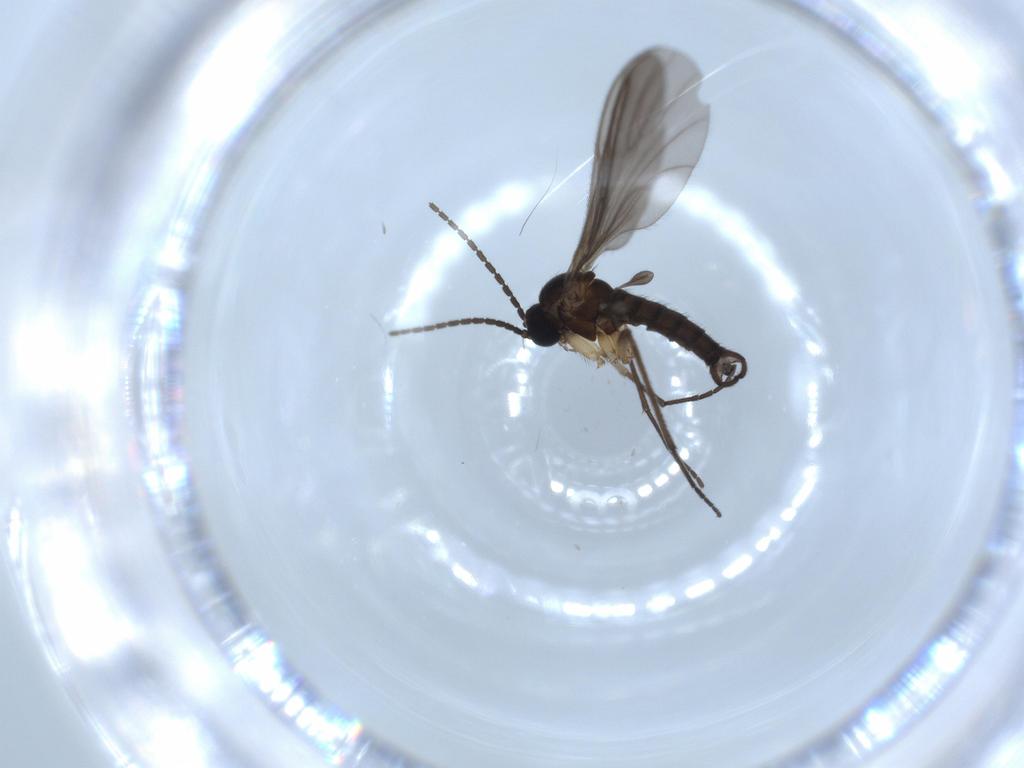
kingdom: Animalia
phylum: Arthropoda
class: Insecta
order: Diptera
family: Sciaridae
